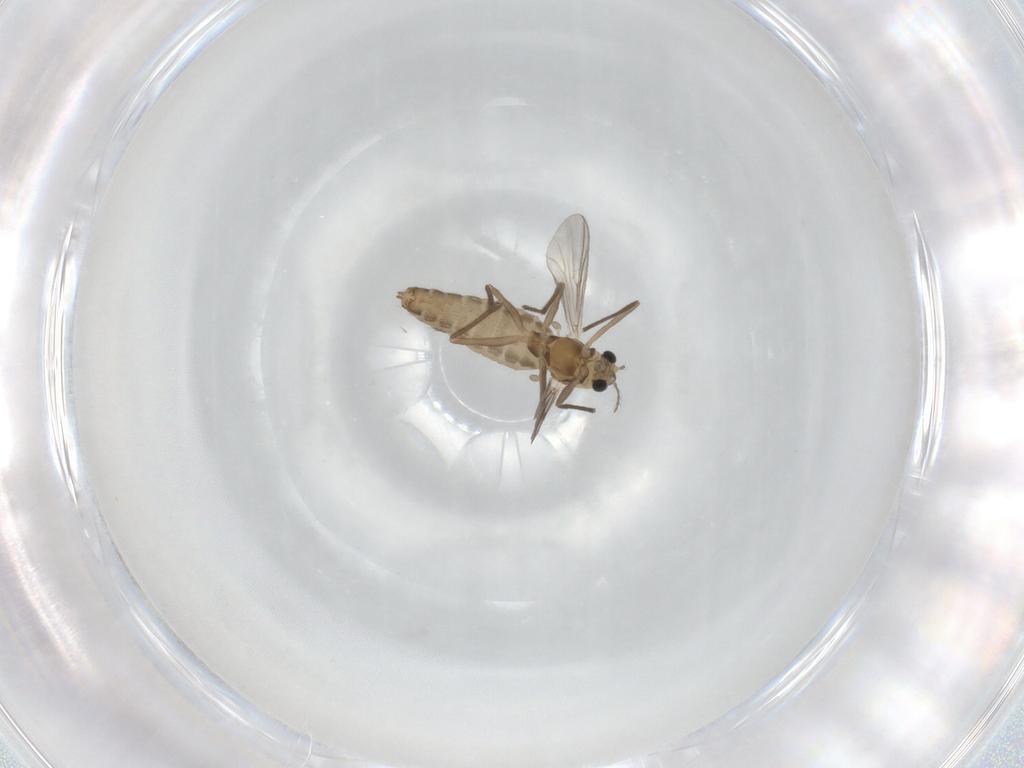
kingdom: Animalia
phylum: Arthropoda
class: Insecta
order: Diptera
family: Chironomidae
